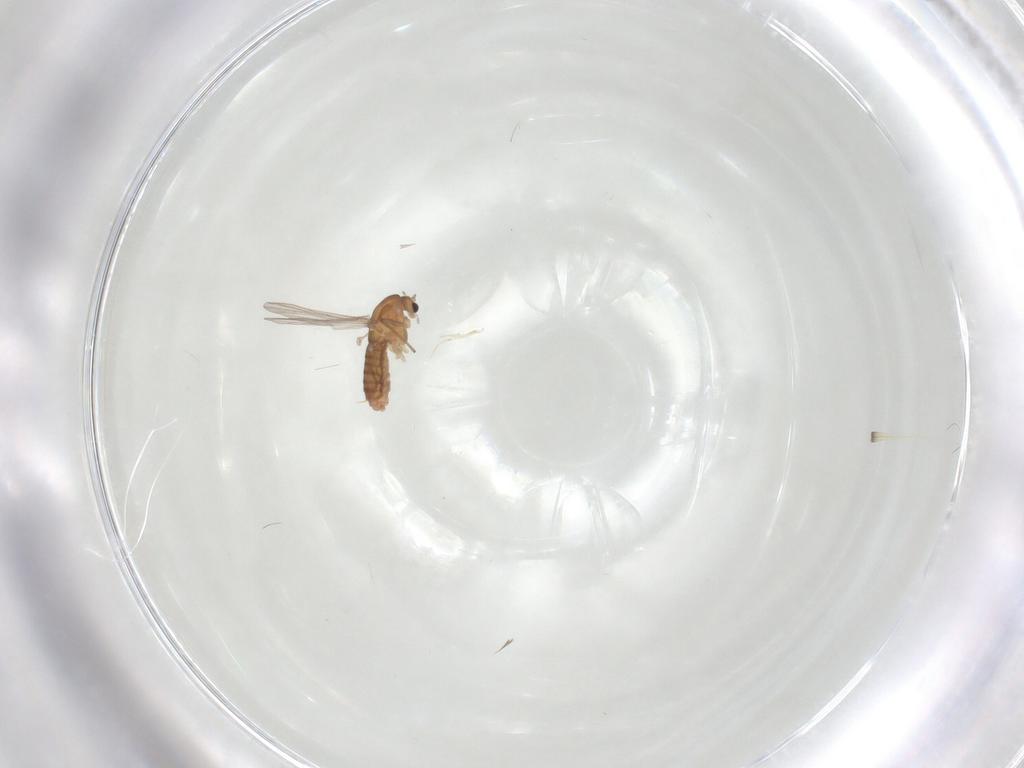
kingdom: Animalia
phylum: Arthropoda
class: Insecta
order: Diptera
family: Chironomidae
